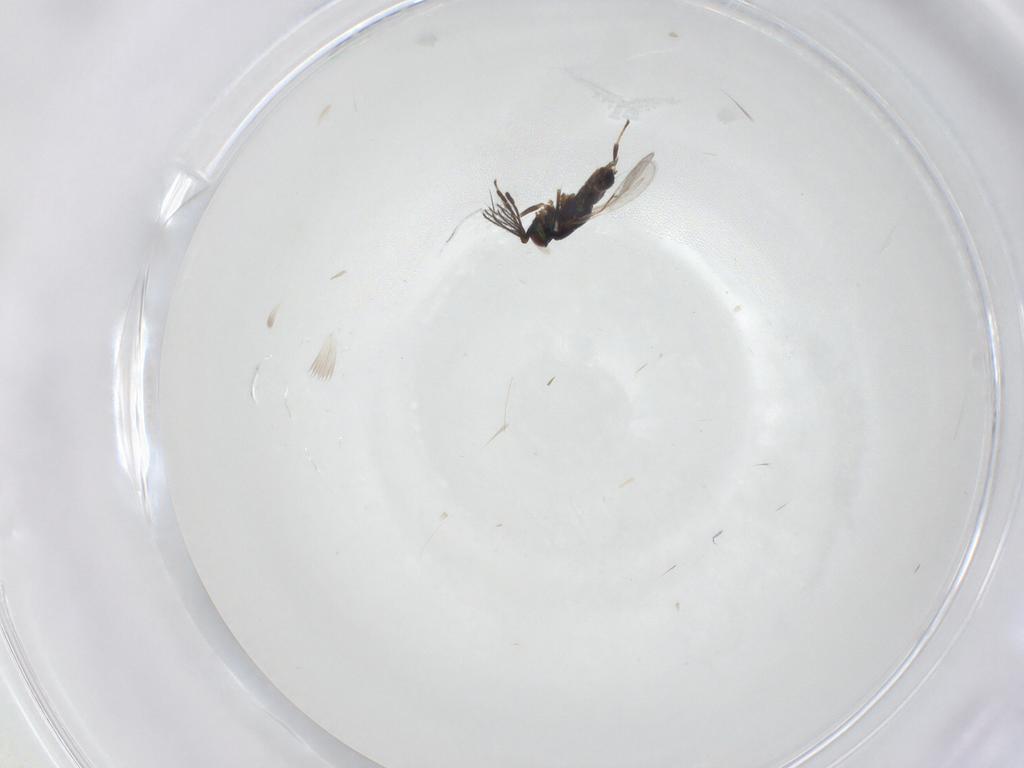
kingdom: Animalia
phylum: Arthropoda
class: Insecta
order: Hymenoptera
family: Encyrtidae
